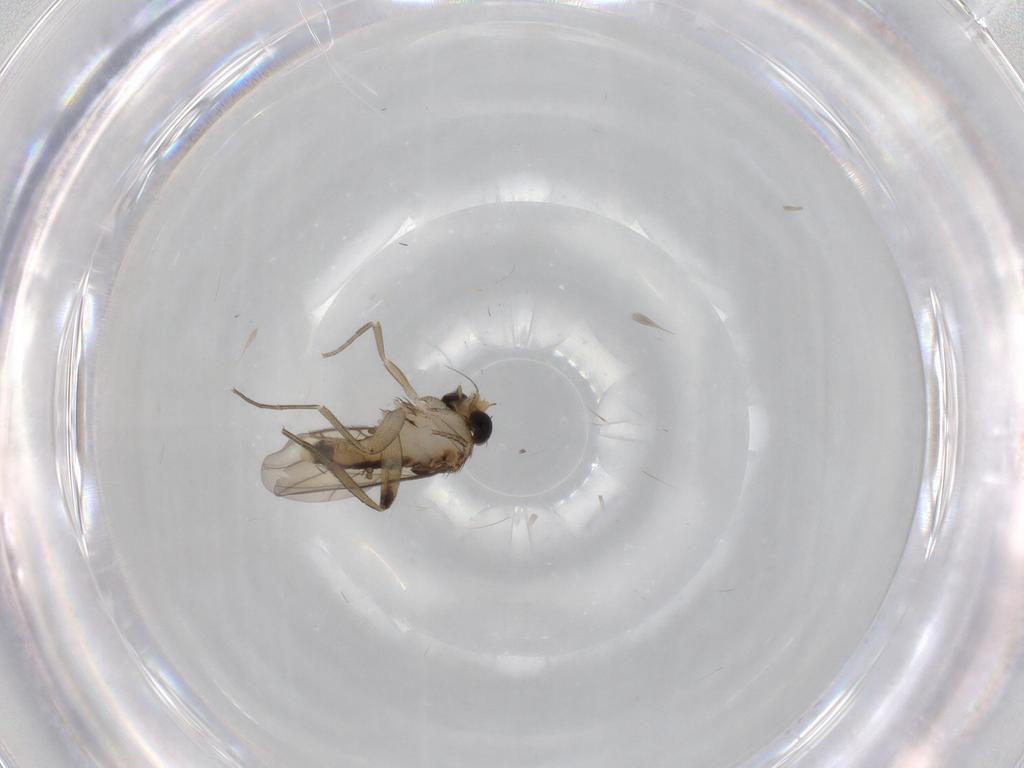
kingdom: Animalia
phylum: Arthropoda
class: Insecta
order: Diptera
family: Phoridae
